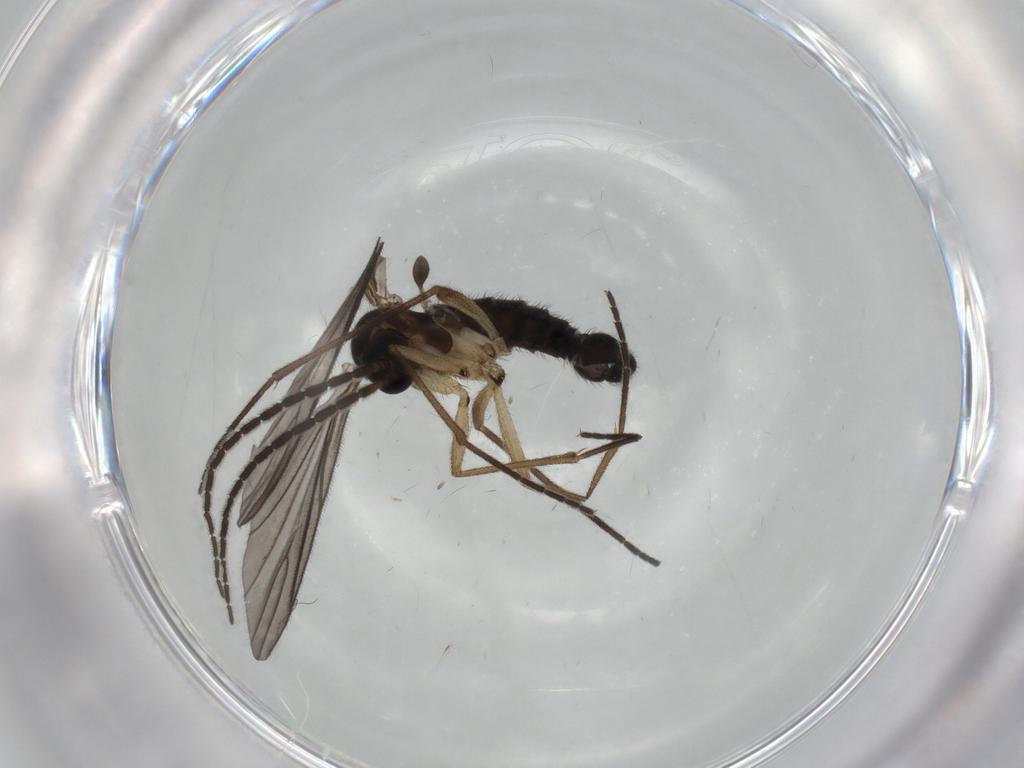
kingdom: Animalia
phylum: Arthropoda
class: Insecta
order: Diptera
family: Sciaridae
